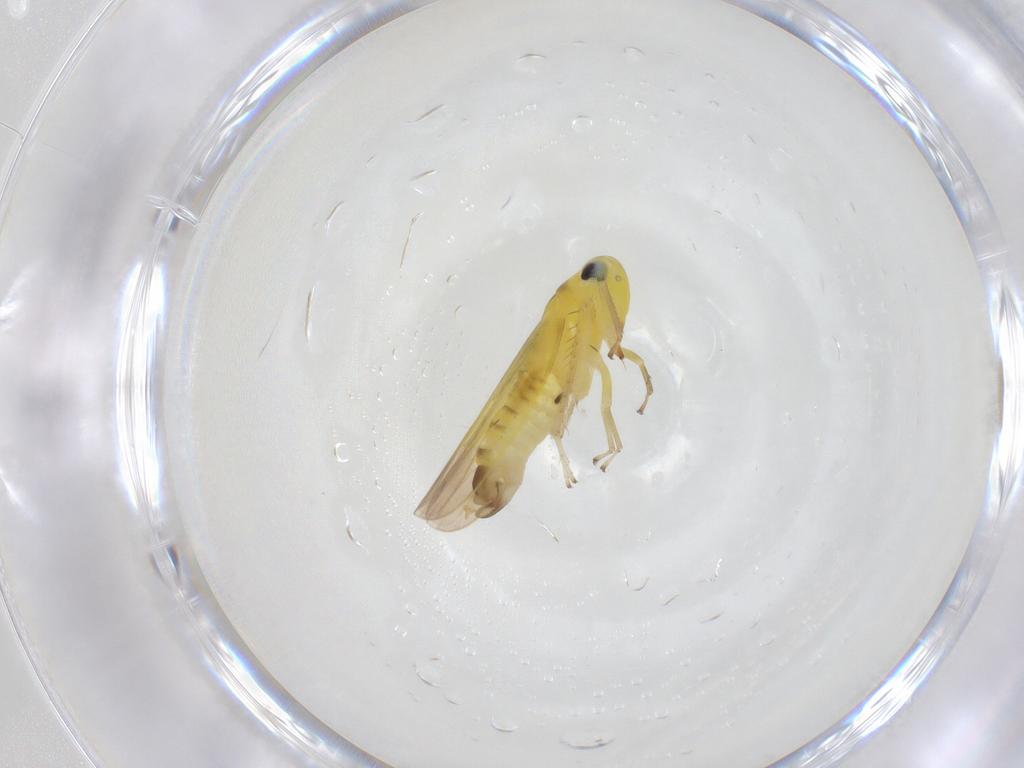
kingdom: Animalia
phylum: Arthropoda
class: Insecta
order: Hemiptera
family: Cicadellidae
